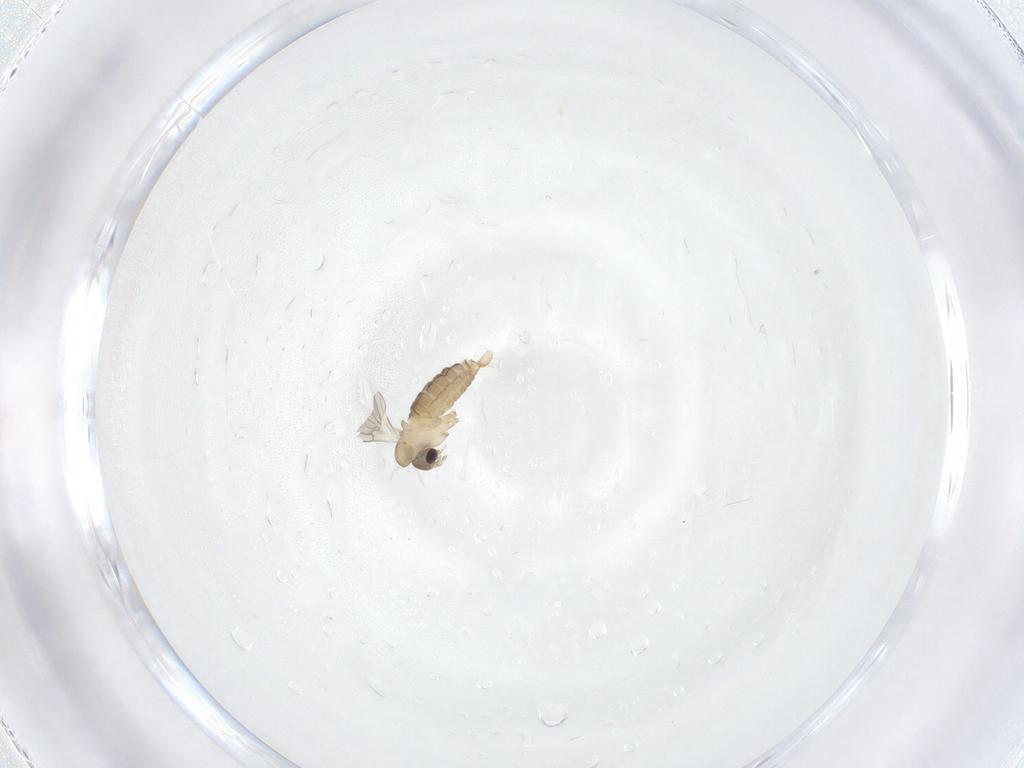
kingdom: Animalia
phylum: Arthropoda
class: Insecta
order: Diptera
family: Psychodidae
